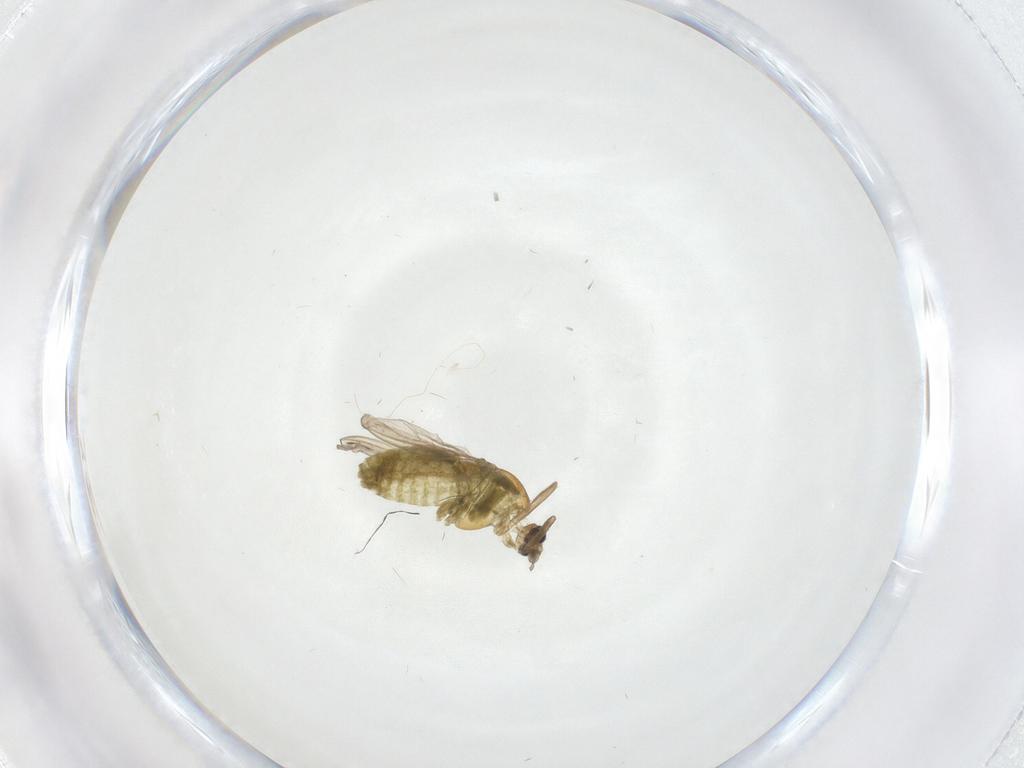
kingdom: Animalia
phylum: Arthropoda
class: Insecta
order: Diptera
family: Chironomidae
